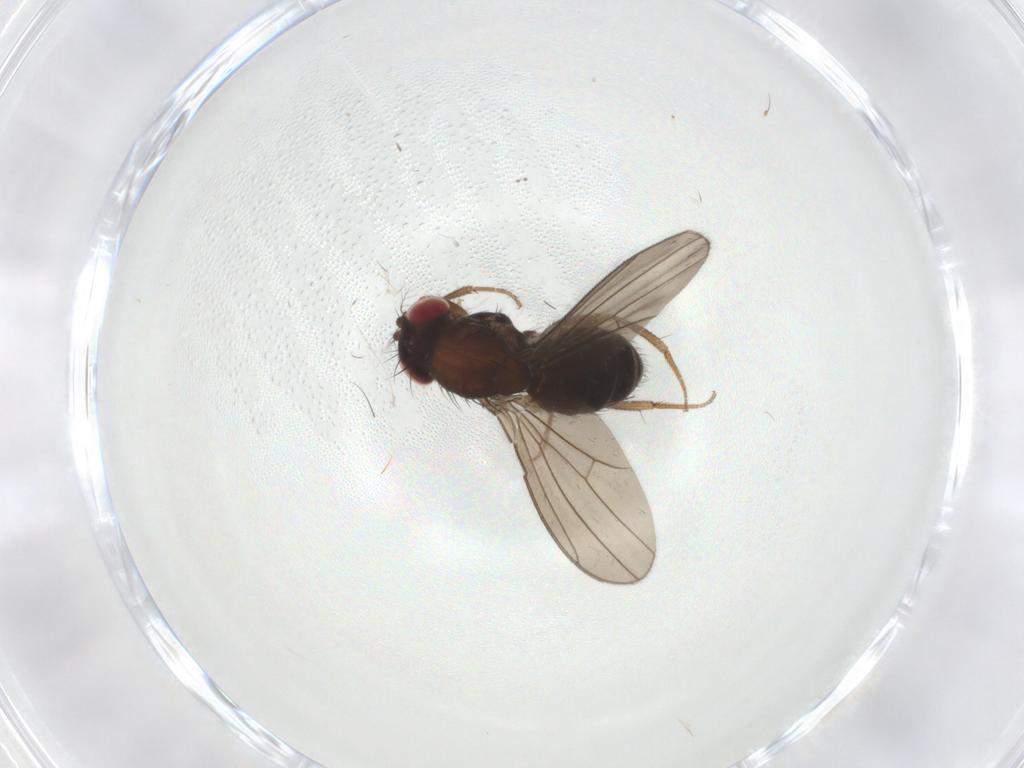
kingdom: Animalia
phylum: Arthropoda
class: Insecta
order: Diptera
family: Drosophilidae
